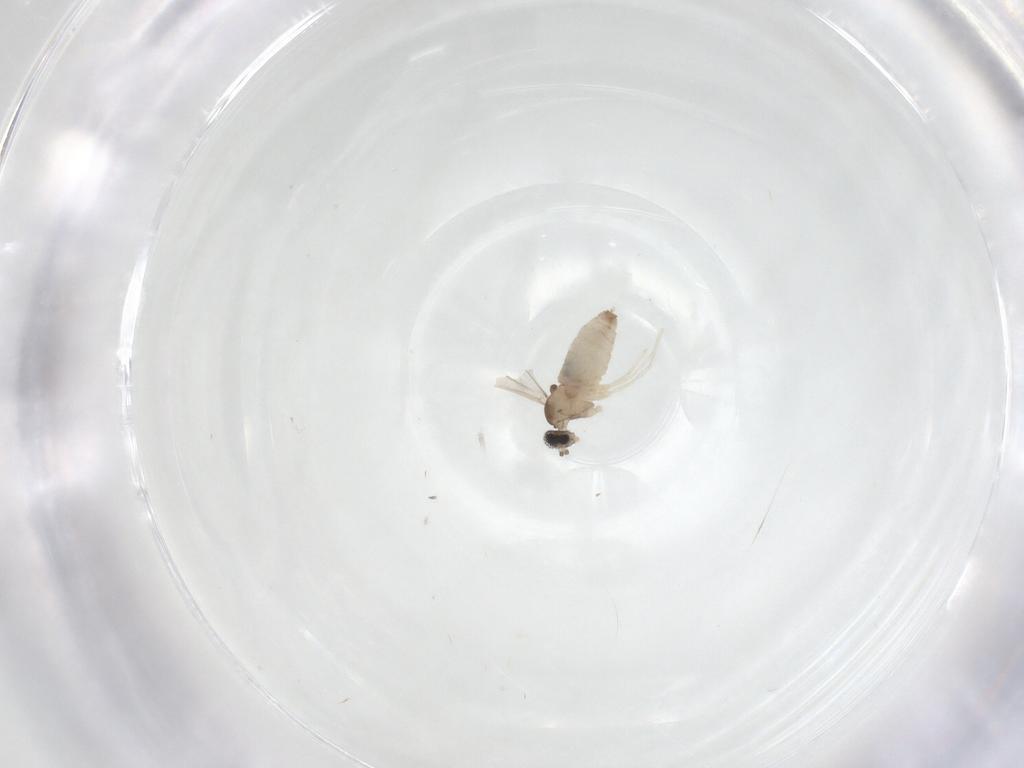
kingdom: Animalia
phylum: Arthropoda
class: Insecta
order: Diptera
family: Cecidomyiidae
